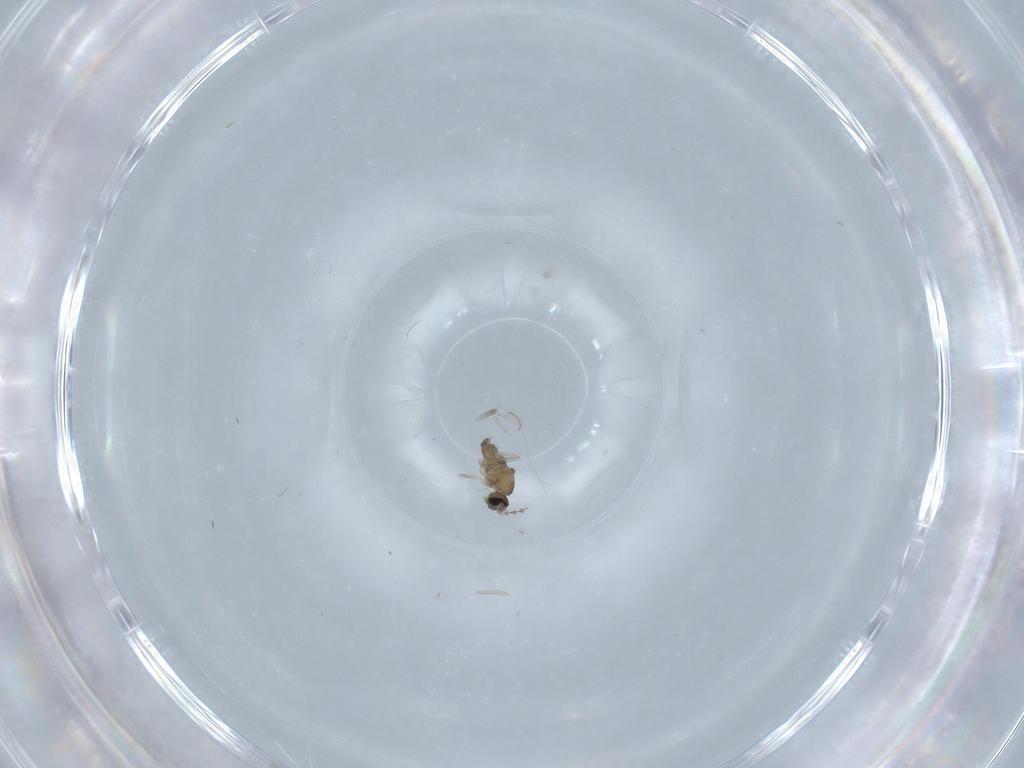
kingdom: Animalia
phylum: Arthropoda
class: Insecta
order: Diptera
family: Cecidomyiidae
